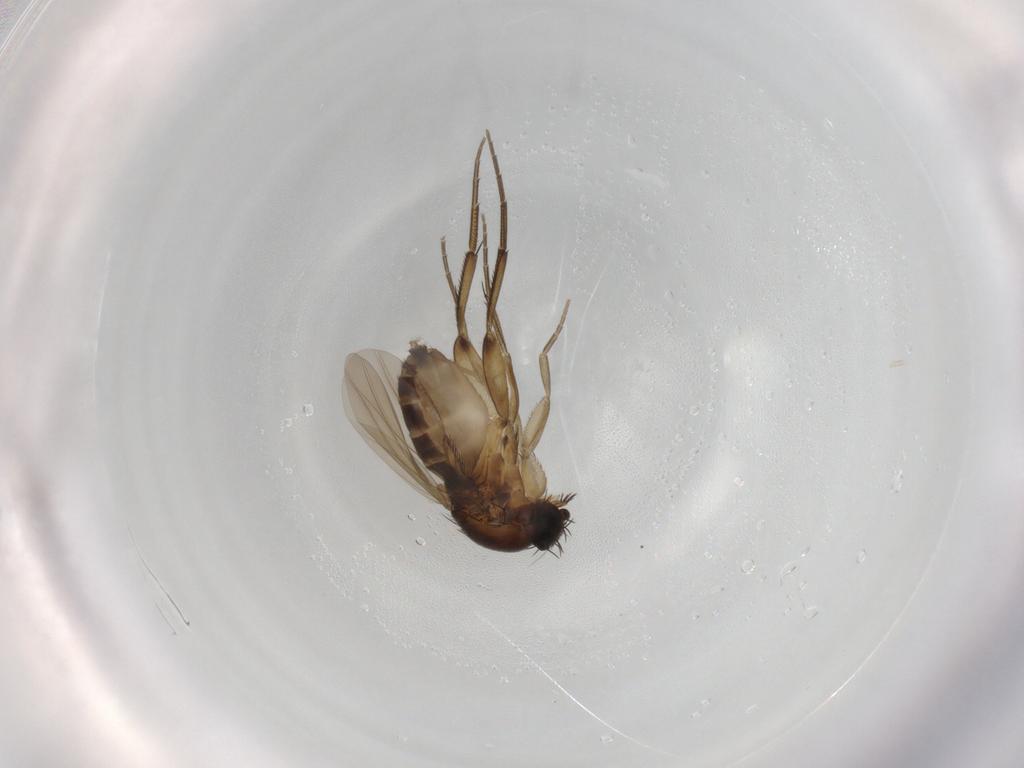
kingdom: Animalia
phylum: Arthropoda
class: Insecta
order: Diptera
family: Phoridae
